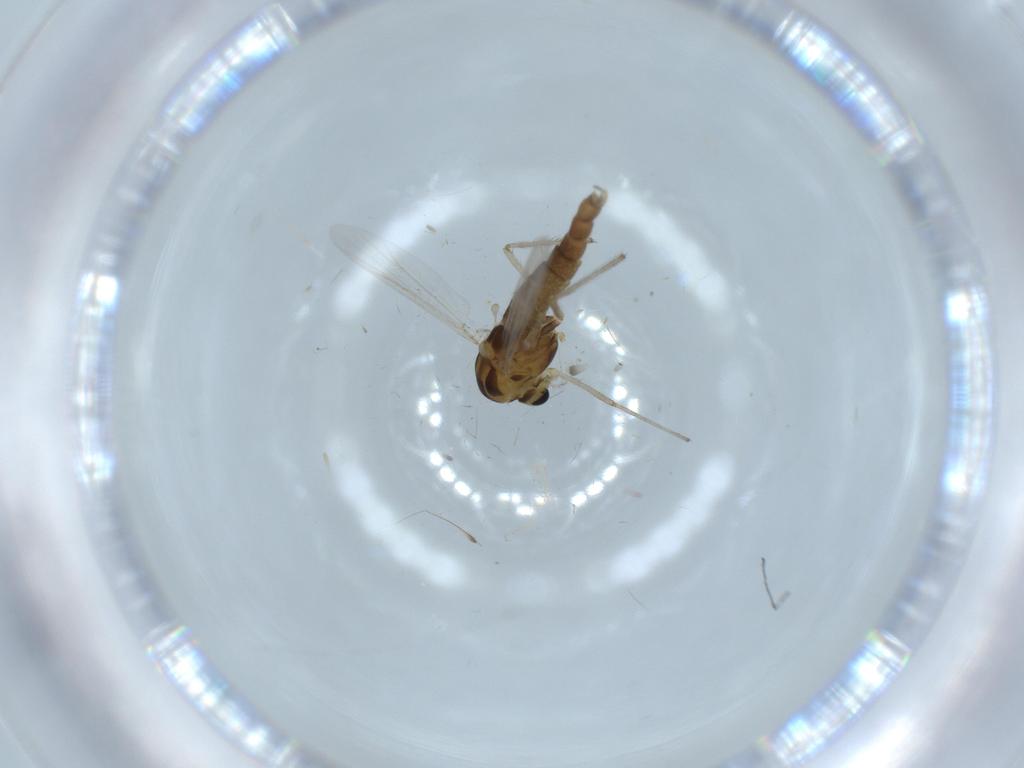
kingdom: Animalia
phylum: Arthropoda
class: Insecta
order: Diptera
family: Chironomidae
